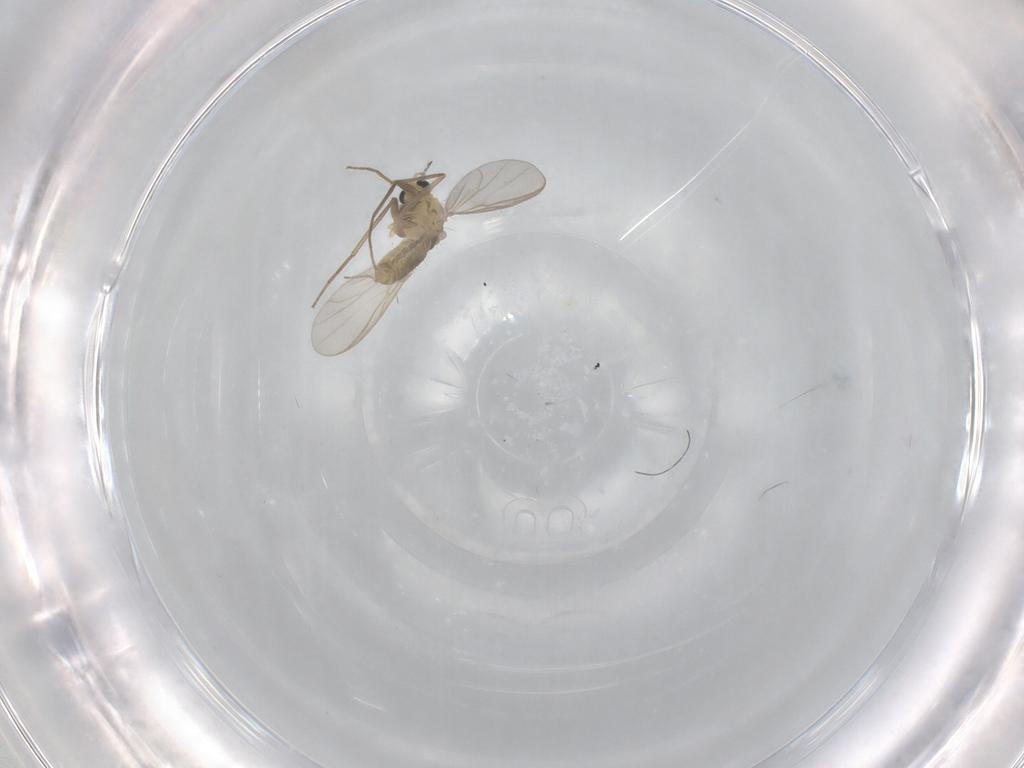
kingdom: Animalia
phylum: Arthropoda
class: Insecta
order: Diptera
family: Chironomidae
